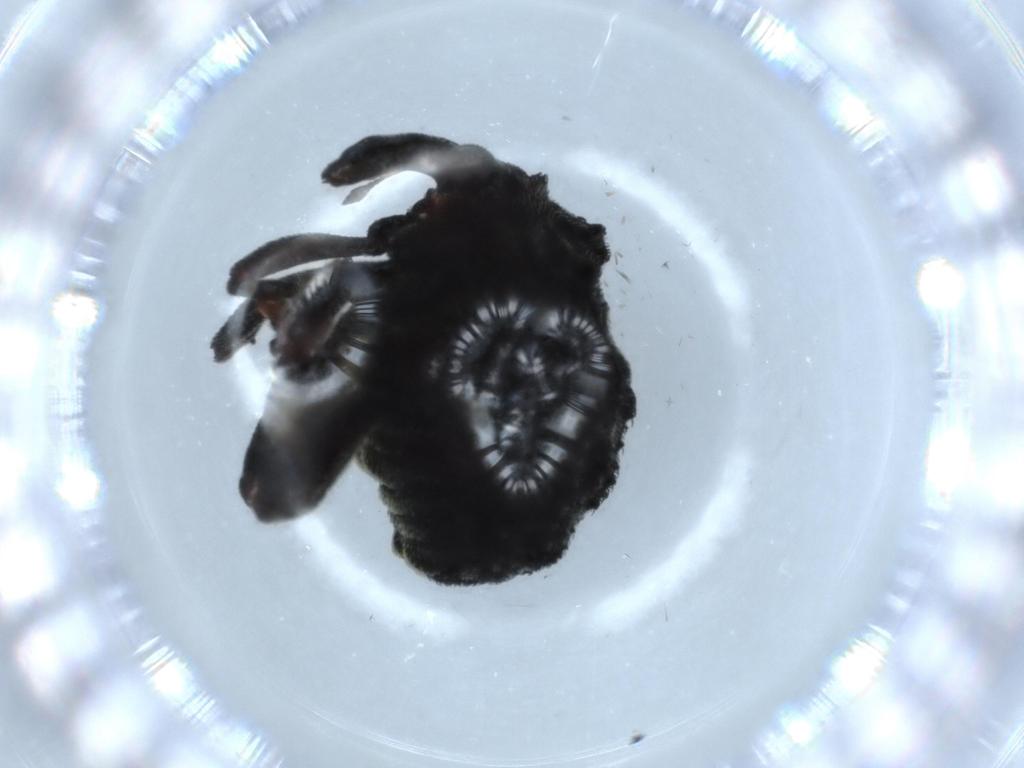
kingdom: Animalia
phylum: Arthropoda
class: Insecta
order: Coleoptera
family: Curculionidae
